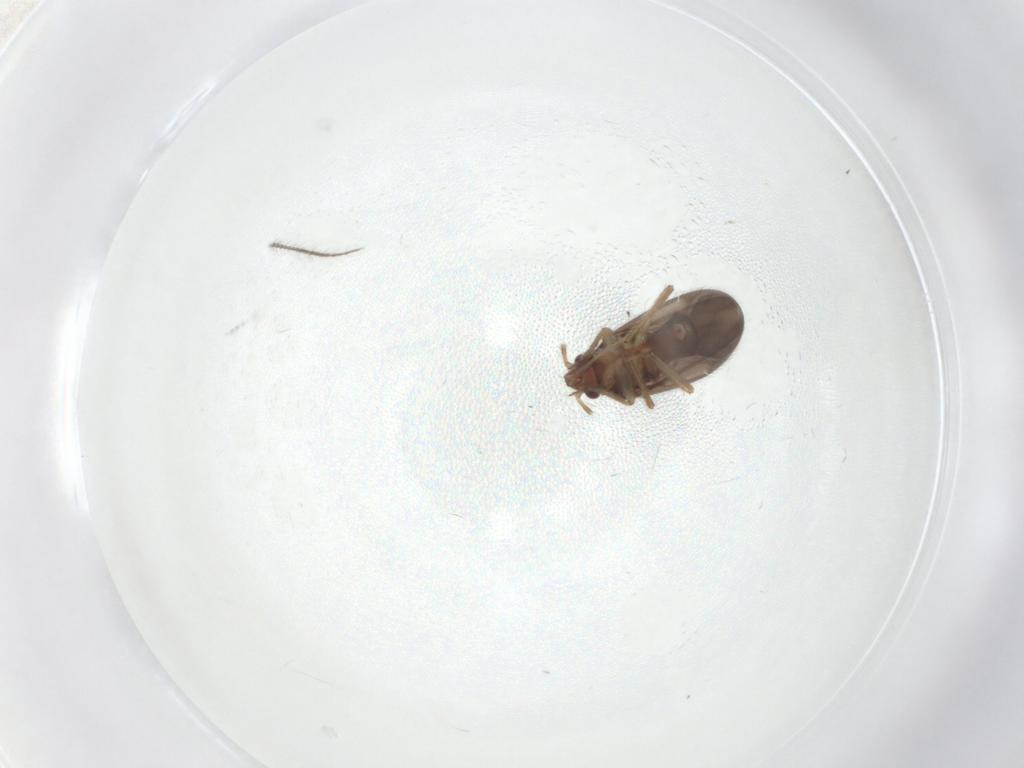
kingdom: Animalia
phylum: Arthropoda
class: Insecta
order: Hemiptera
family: Ceratocombidae
